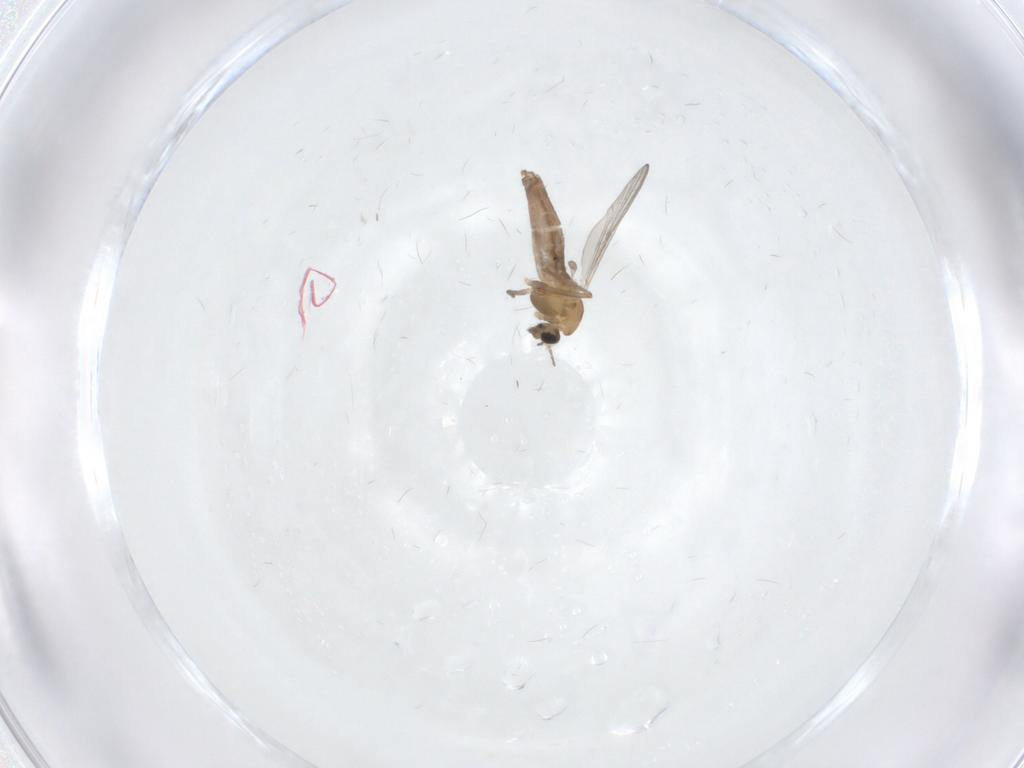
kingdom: Animalia
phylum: Arthropoda
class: Insecta
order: Diptera
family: Chironomidae
